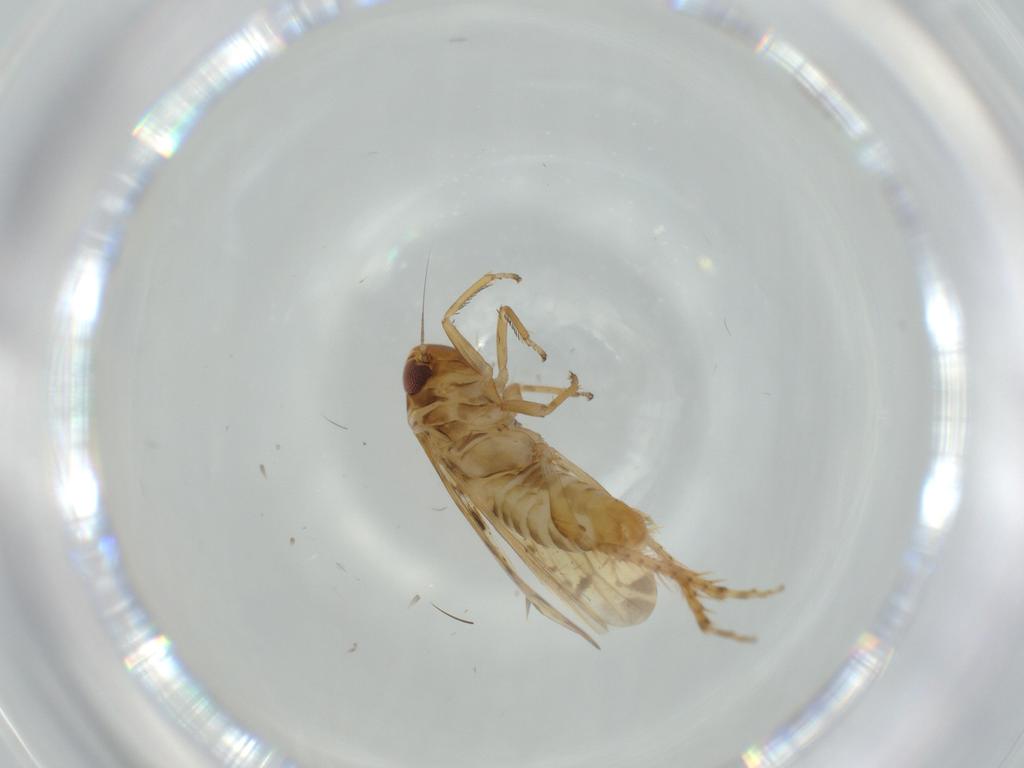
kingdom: Animalia
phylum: Arthropoda
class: Insecta
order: Hemiptera
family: Cicadellidae
